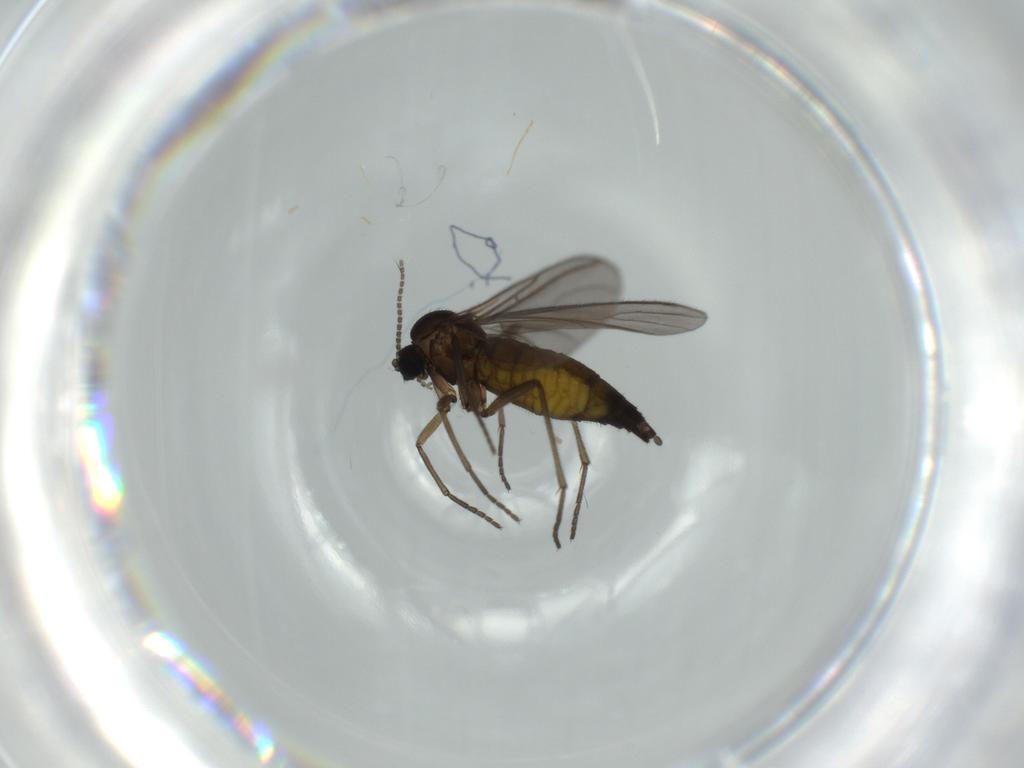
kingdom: Animalia
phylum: Arthropoda
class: Insecta
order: Diptera
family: Sciaridae
